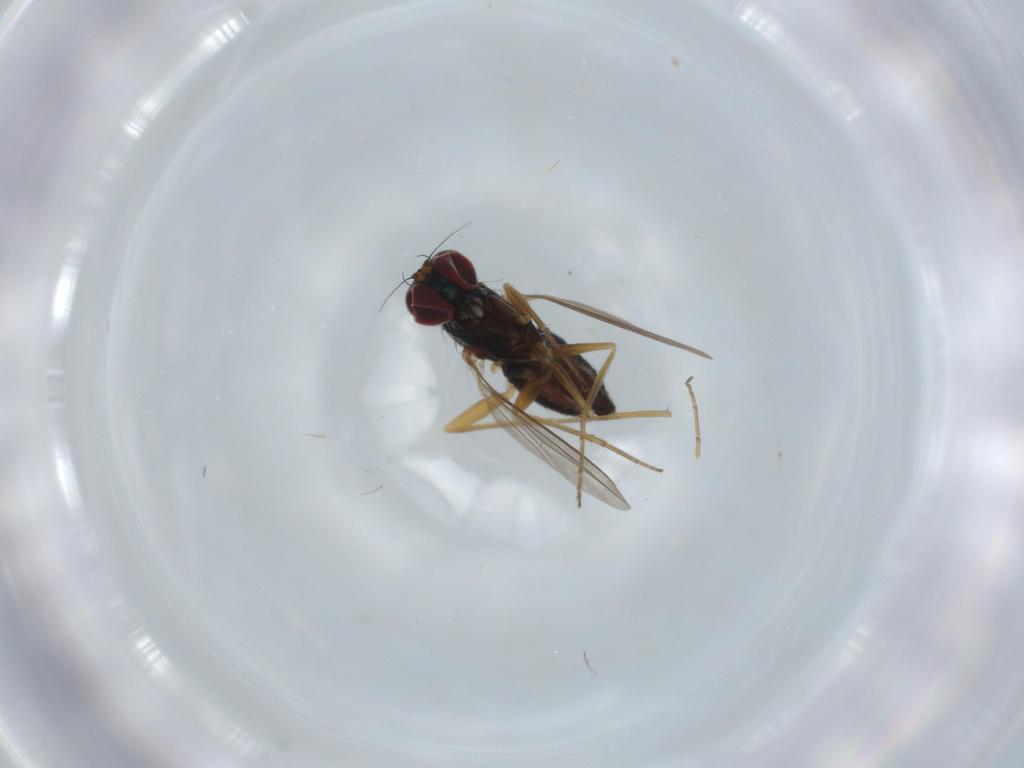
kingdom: Animalia
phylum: Arthropoda
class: Insecta
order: Diptera
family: Dolichopodidae
